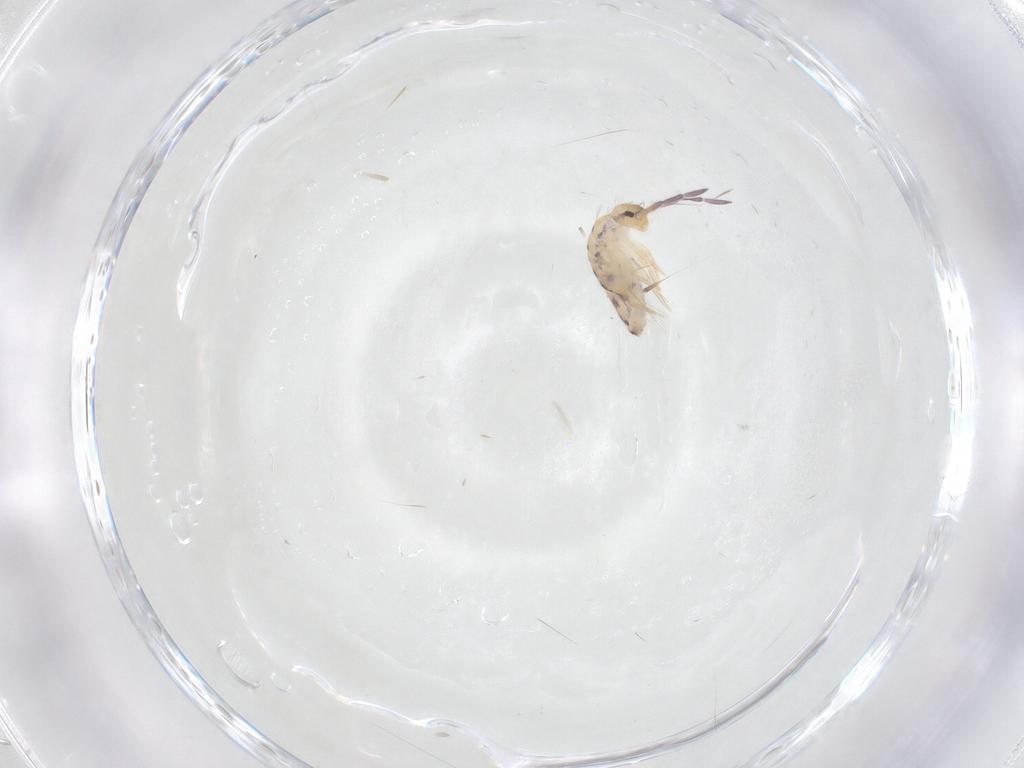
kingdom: Animalia
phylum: Arthropoda
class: Collembola
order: Entomobryomorpha
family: Entomobryidae
